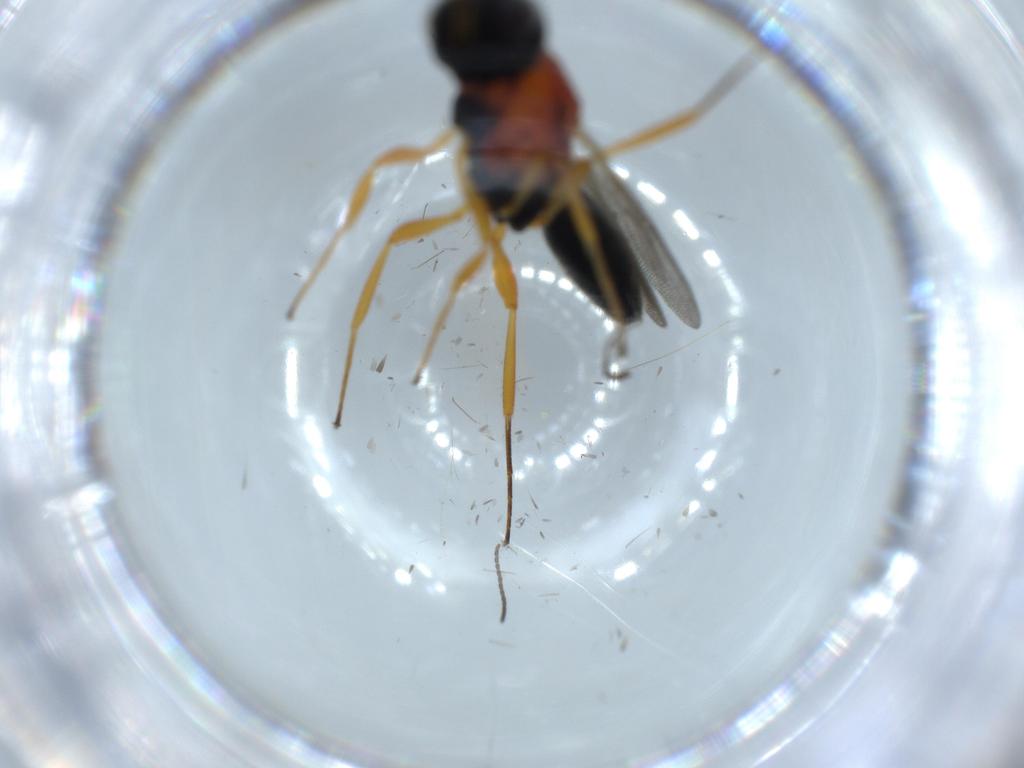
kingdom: Animalia
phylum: Arthropoda
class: Insecta
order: Hymenoptera
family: Scelionidae
